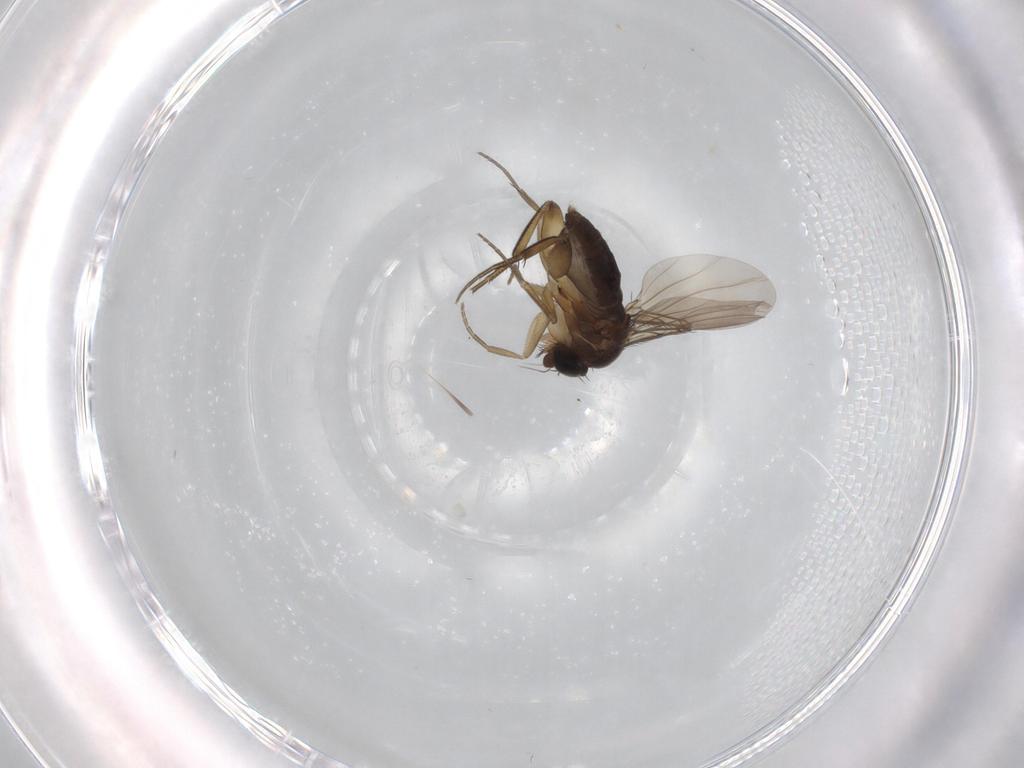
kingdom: Animalia
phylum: Arthropoda
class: Insecta
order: Diptera
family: Phoridae
